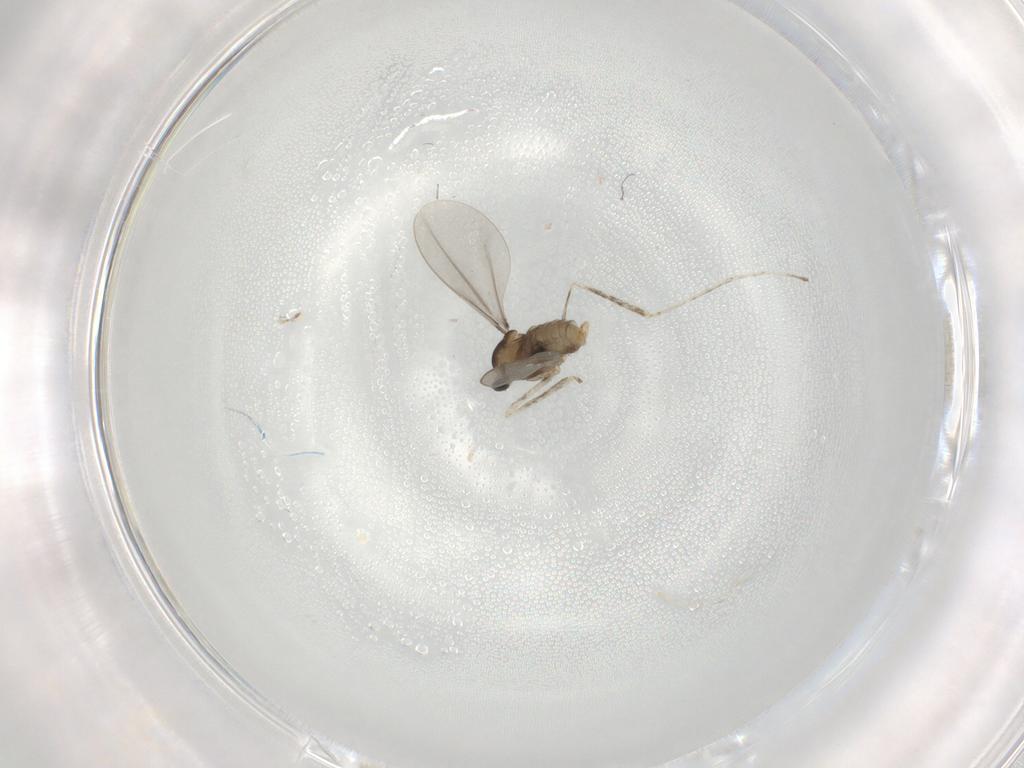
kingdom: Animalia
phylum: Arthropoda
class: Insecta
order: Diptera
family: Cecidomyiidae
